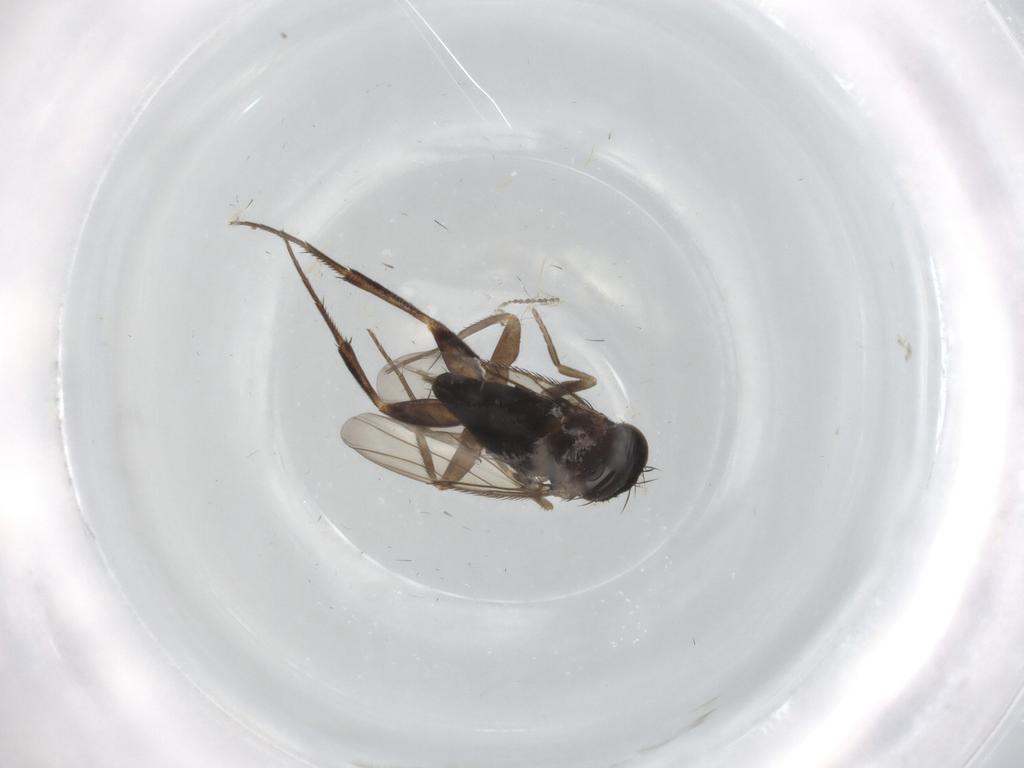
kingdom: Animalia
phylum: Arthropoda
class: Insecta
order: Diptera
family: Phoridae
